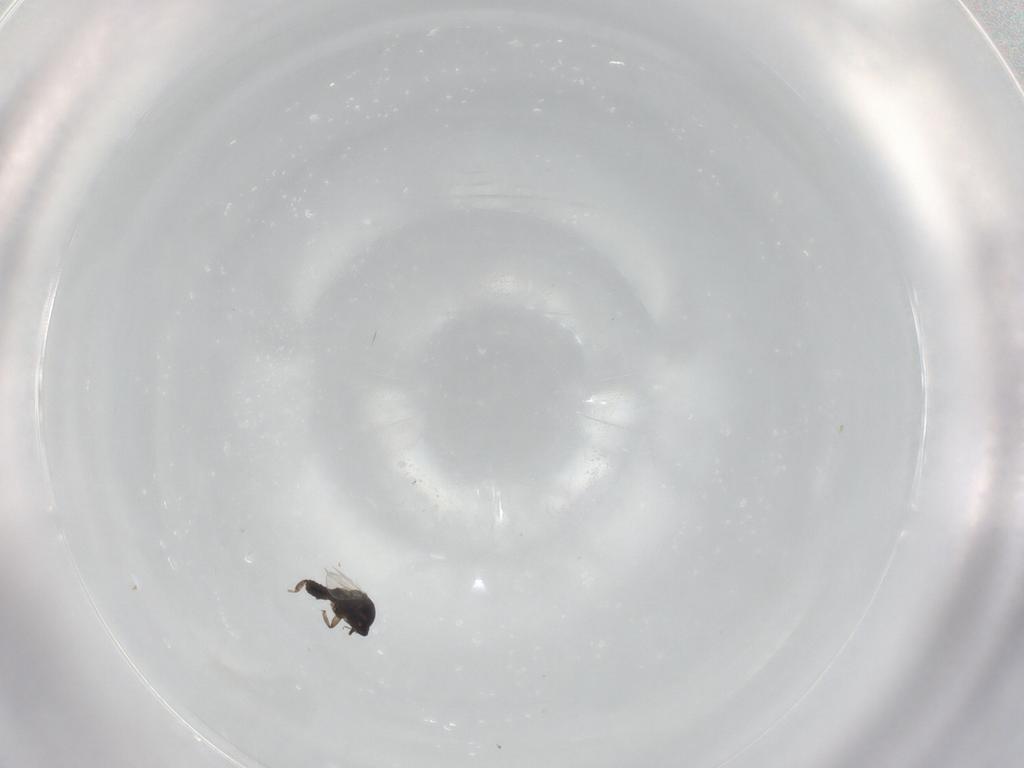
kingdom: Animalia
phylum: Arthropoda
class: Insecta
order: Diptera
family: Ceratopogonidae
